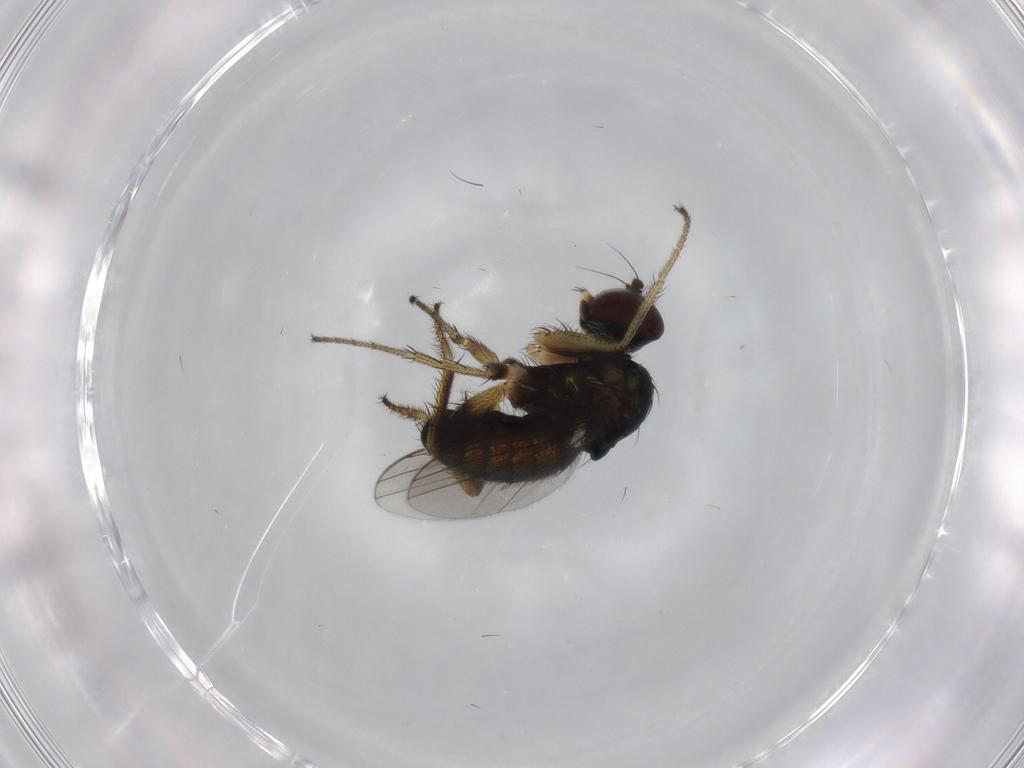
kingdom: Animalia
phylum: Arthropoda
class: Insecta
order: Diptera
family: Dolichopodidae
